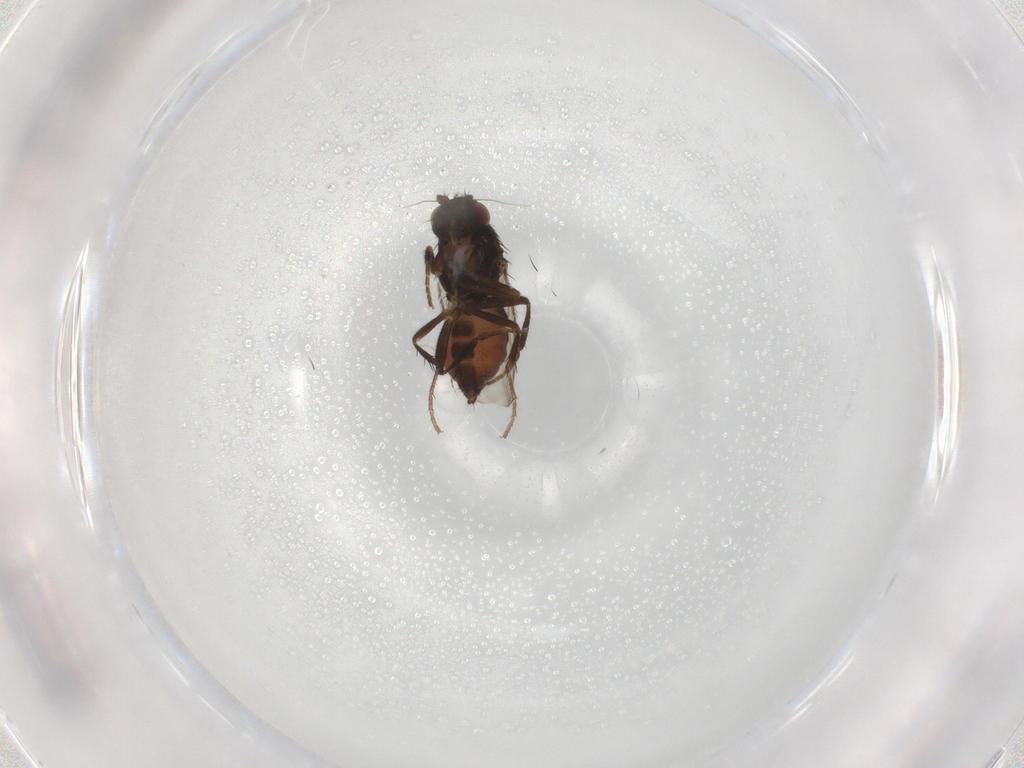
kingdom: Animalia
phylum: Arthropoda
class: Insecta
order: Diptera
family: Sphaeroceridae
